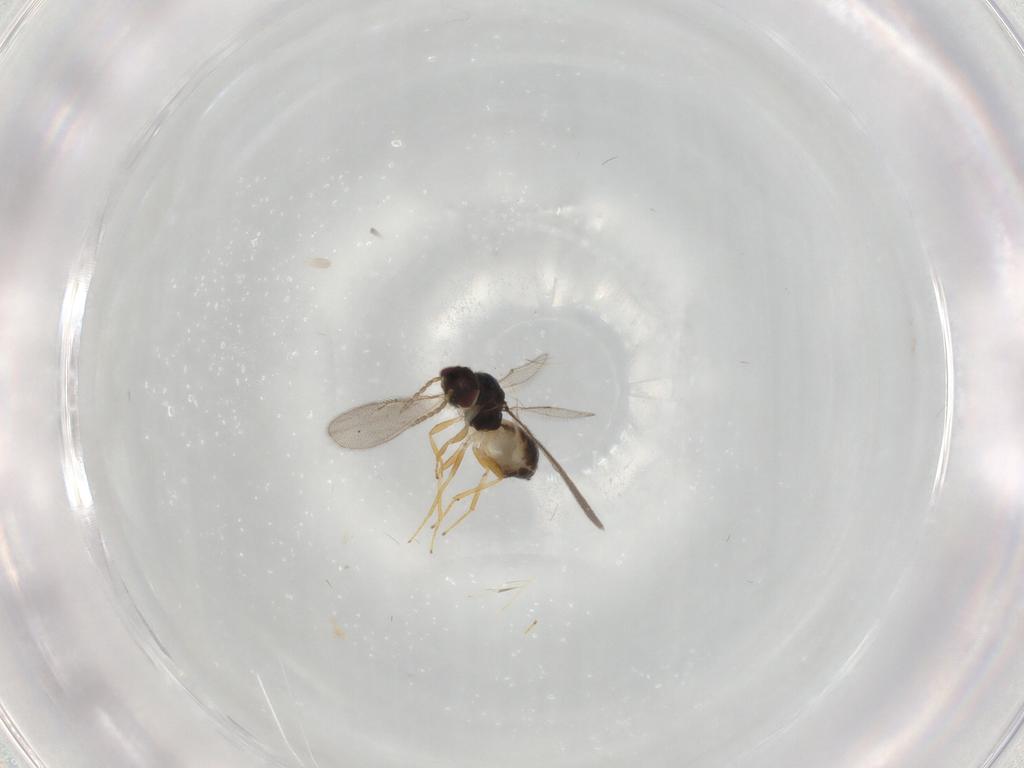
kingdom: Animalia
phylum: Arthropoda
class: Insecta
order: Hymenoptera
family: Eulophidae
